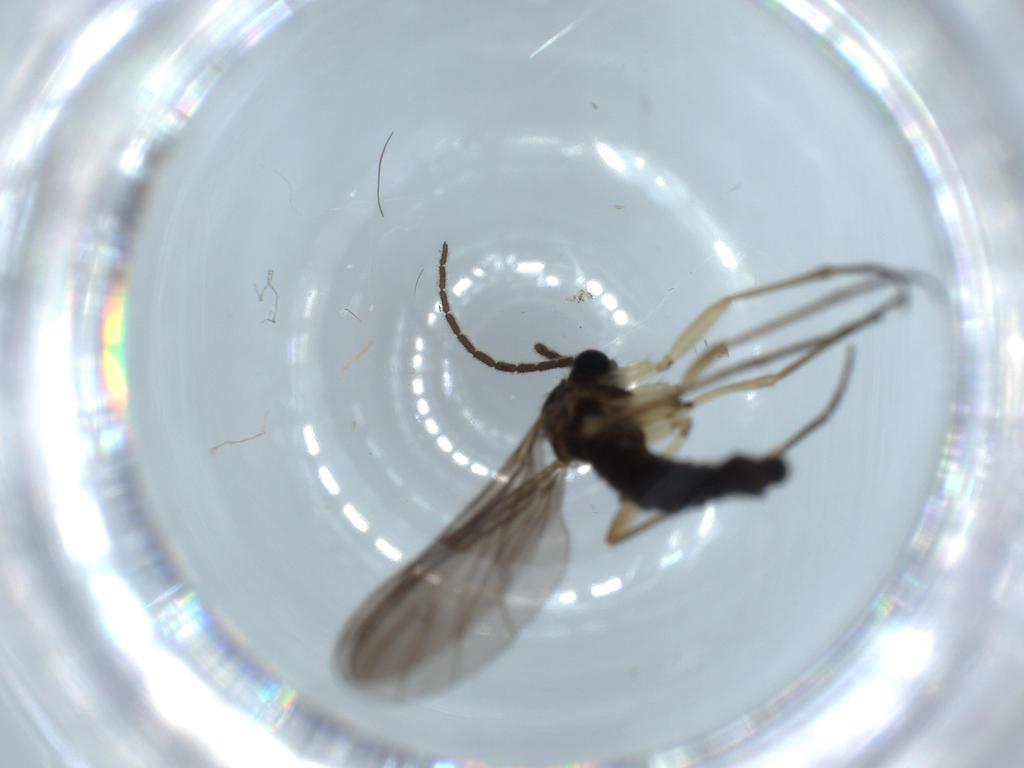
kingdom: Animalia
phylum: Arthropoda
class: Insecta
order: Diptera
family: Sciaridae
